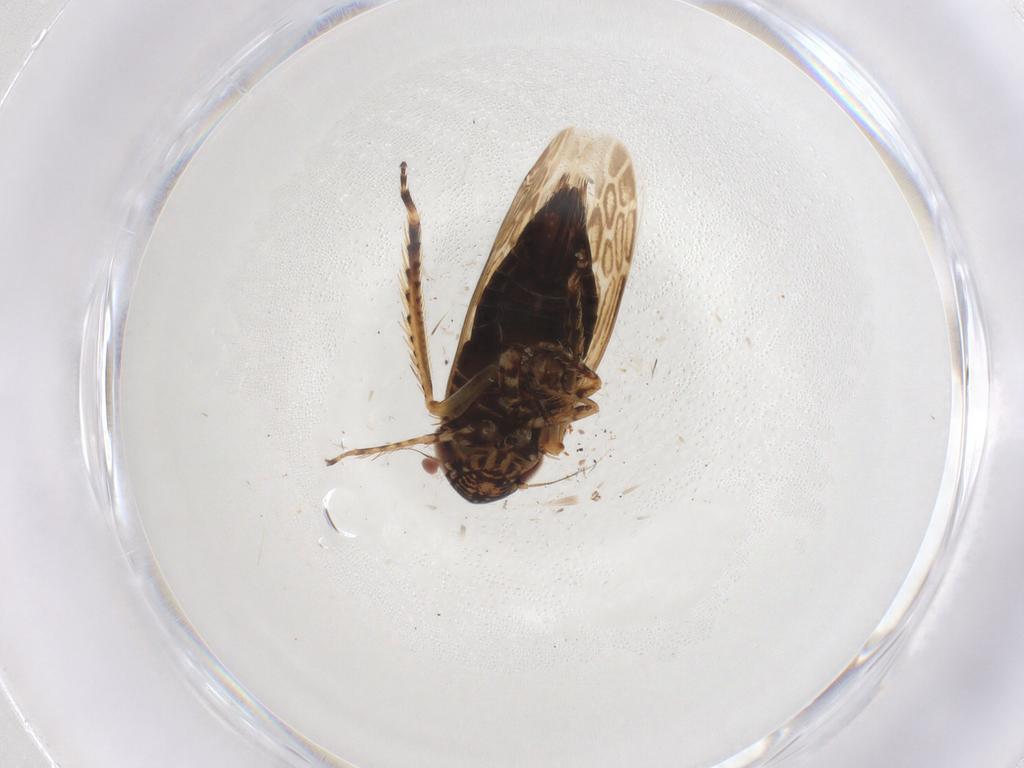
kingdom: Animalia
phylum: Arthropoda
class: Insecta
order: Hemiptera
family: Cicadellidae
